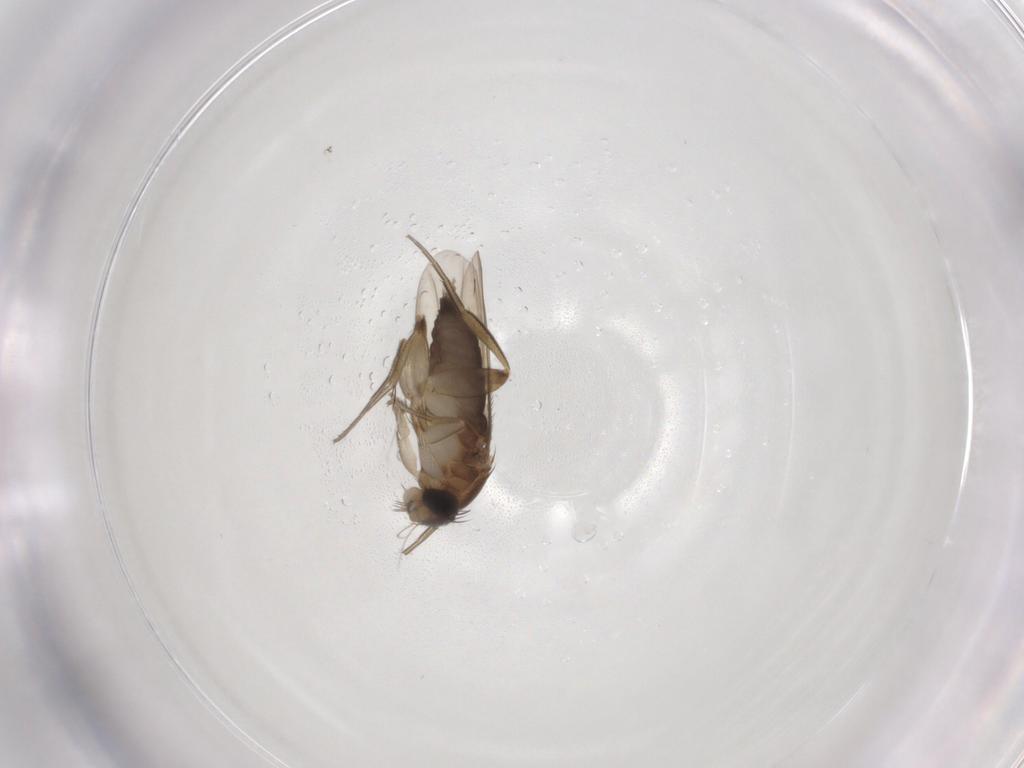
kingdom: Animalia
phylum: Arthropoda
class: Insecta
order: Diptera
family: Phoridae
